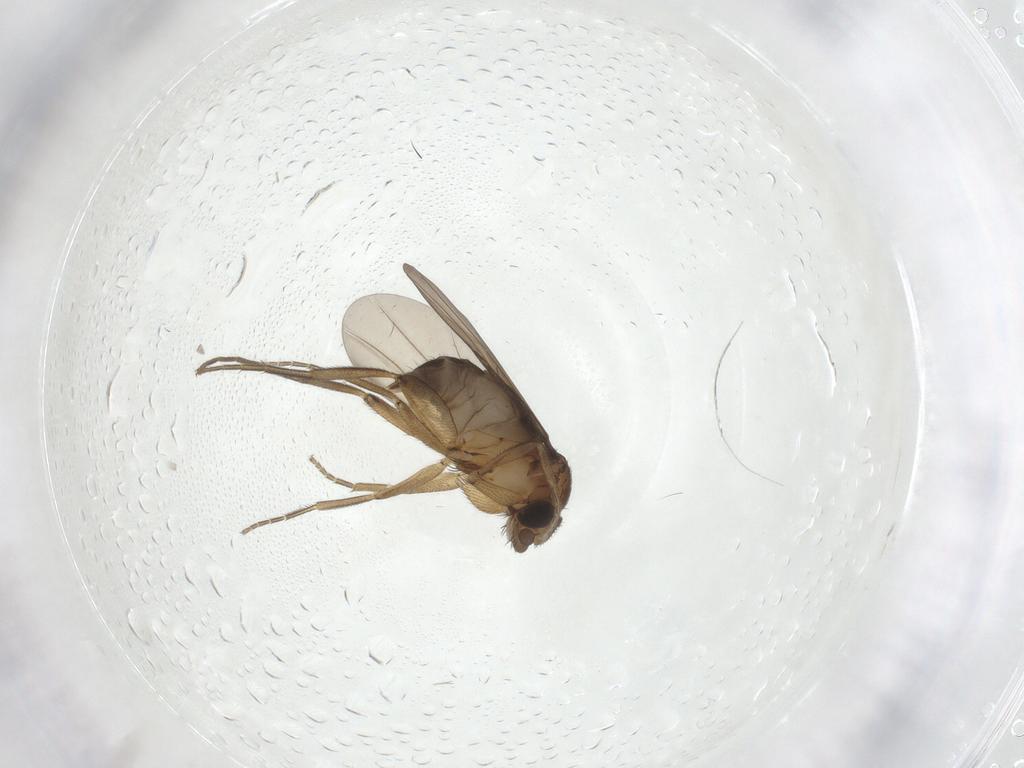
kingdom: Animalia
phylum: Arthropoda
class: Insecta
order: Diptera
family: Phoridae
